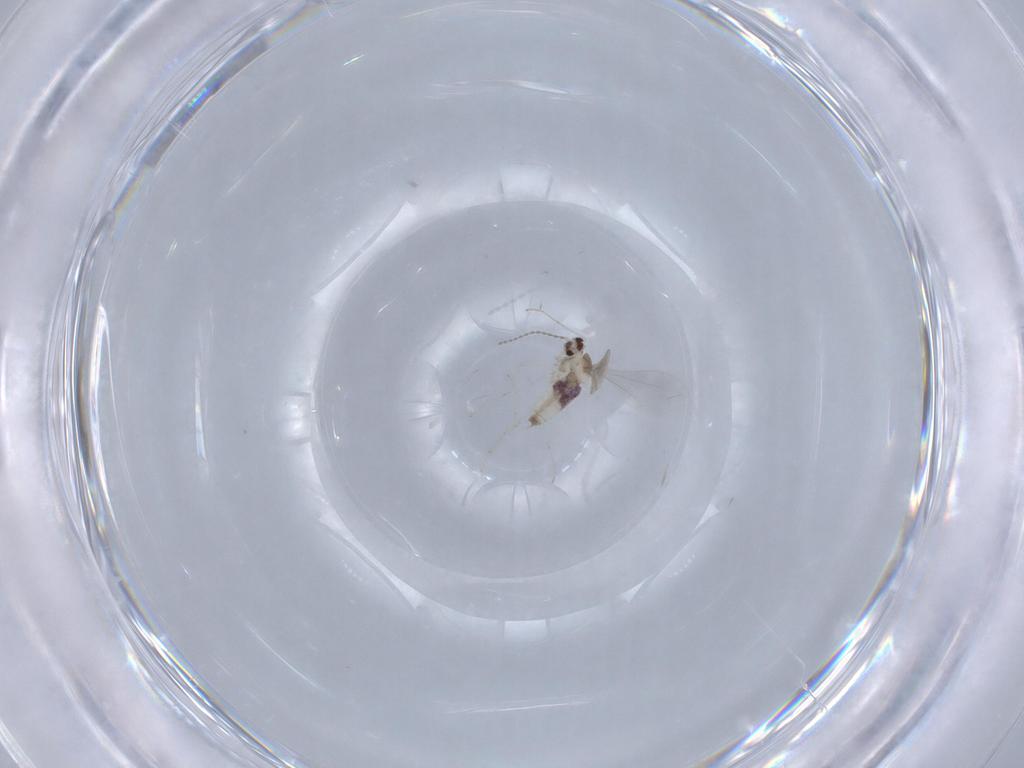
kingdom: Animalia
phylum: Arthropoda
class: Insecta
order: Diptera
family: Cecidomyiidae
